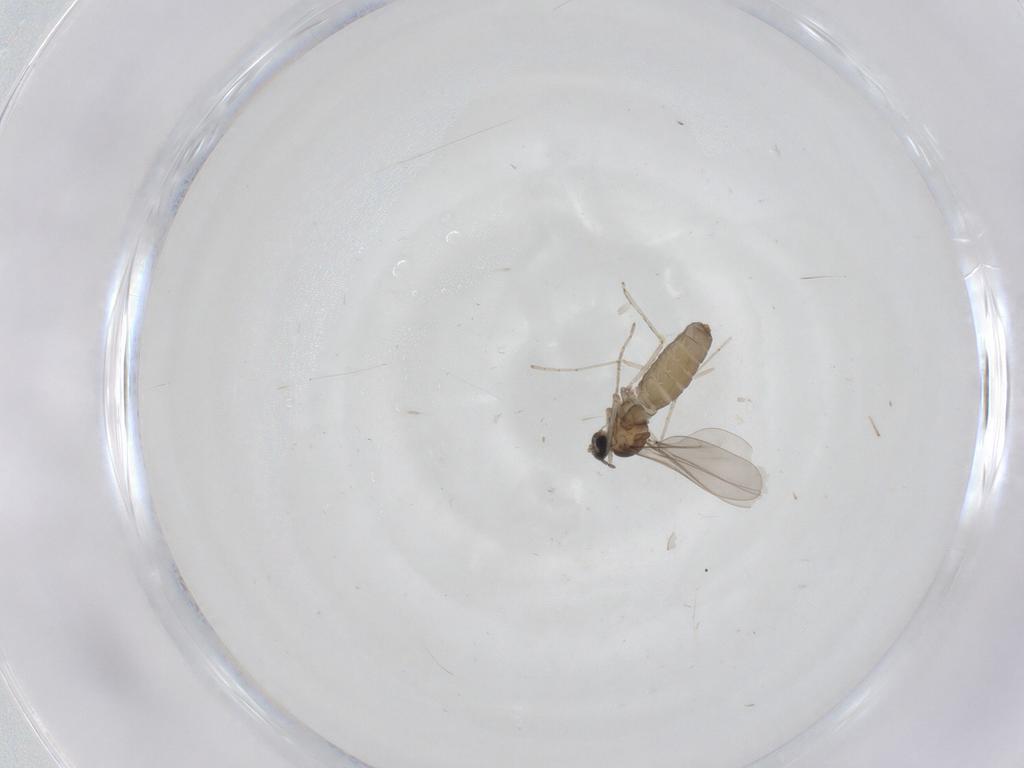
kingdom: Animalia
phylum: Arthropoda
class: Insecta
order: Diptera
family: Cecidomyiidae
